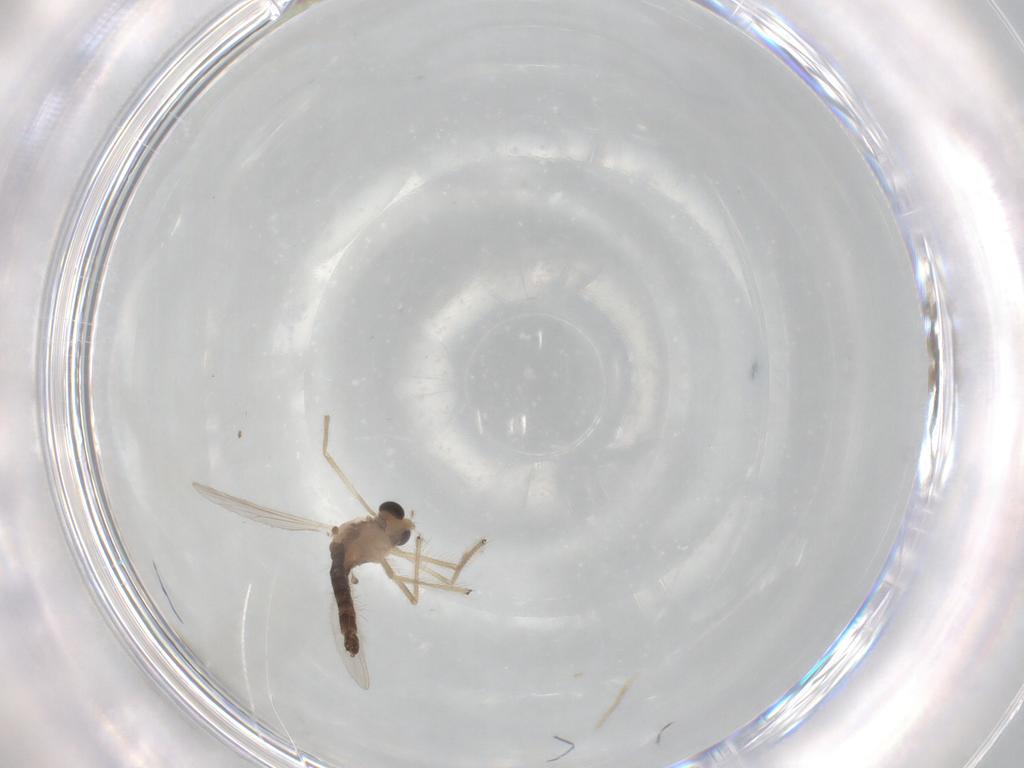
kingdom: Animalia
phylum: Arthropoda
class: Insecta
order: Diptera
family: Chironomidae
